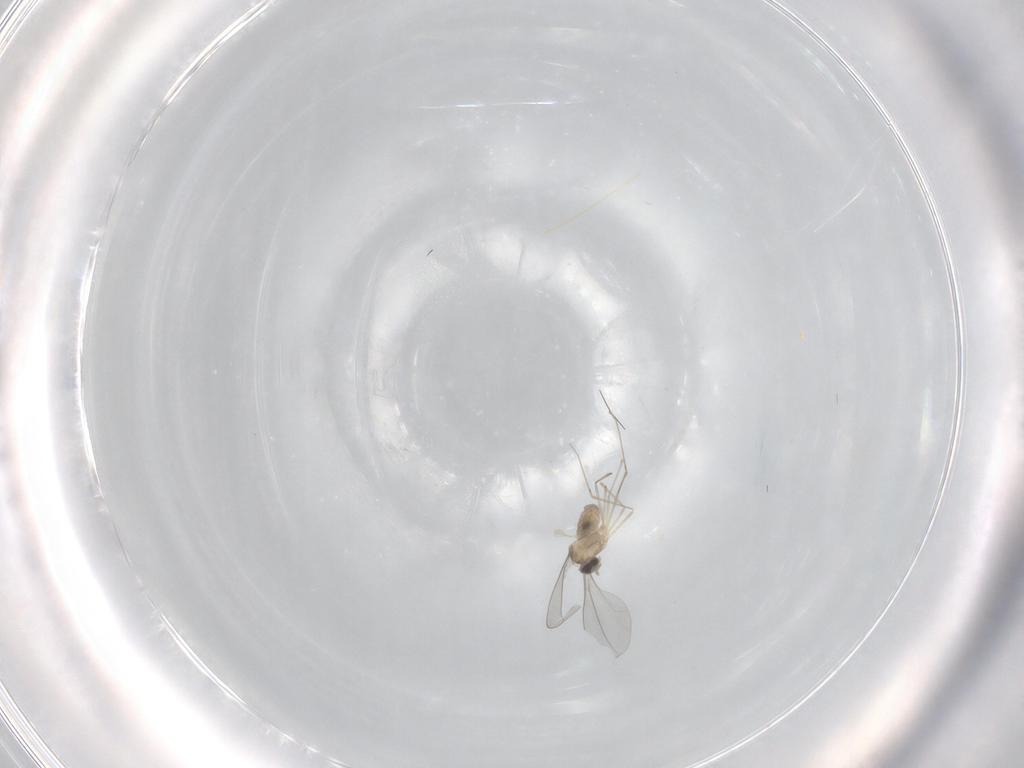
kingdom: Animalia
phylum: Arthropoda
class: Insecta
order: Diptera
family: Cecidomyiidae
